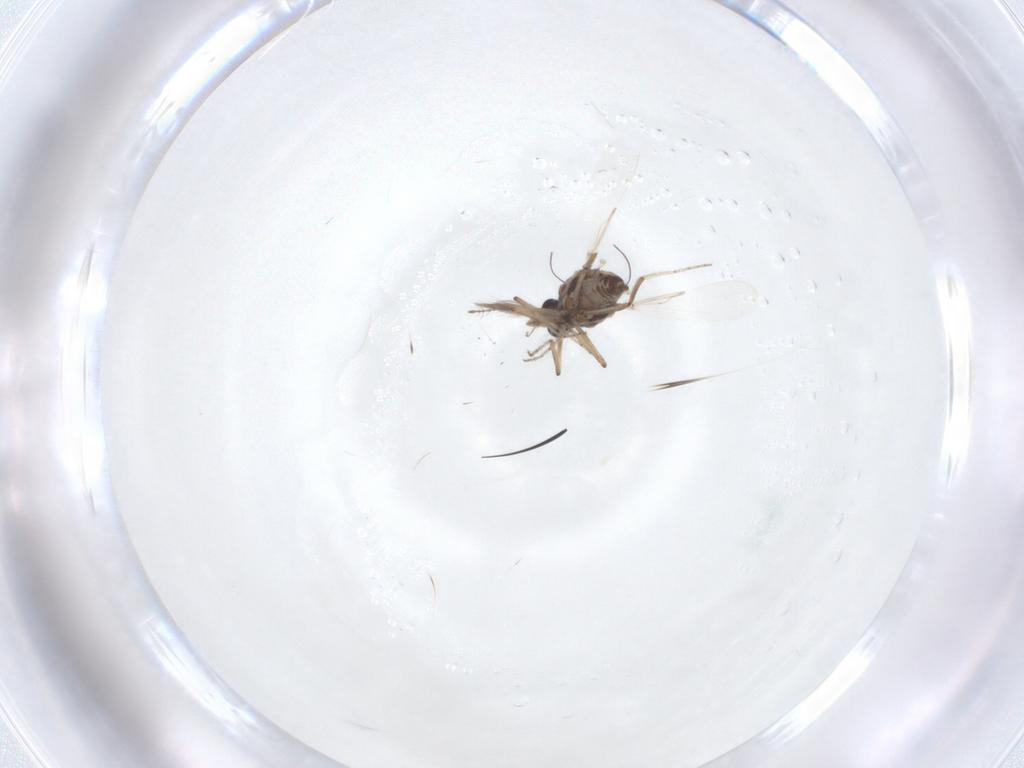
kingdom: Animalia
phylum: Arthropoda
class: Insecta
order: Diptera
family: Ceratopogonidae
